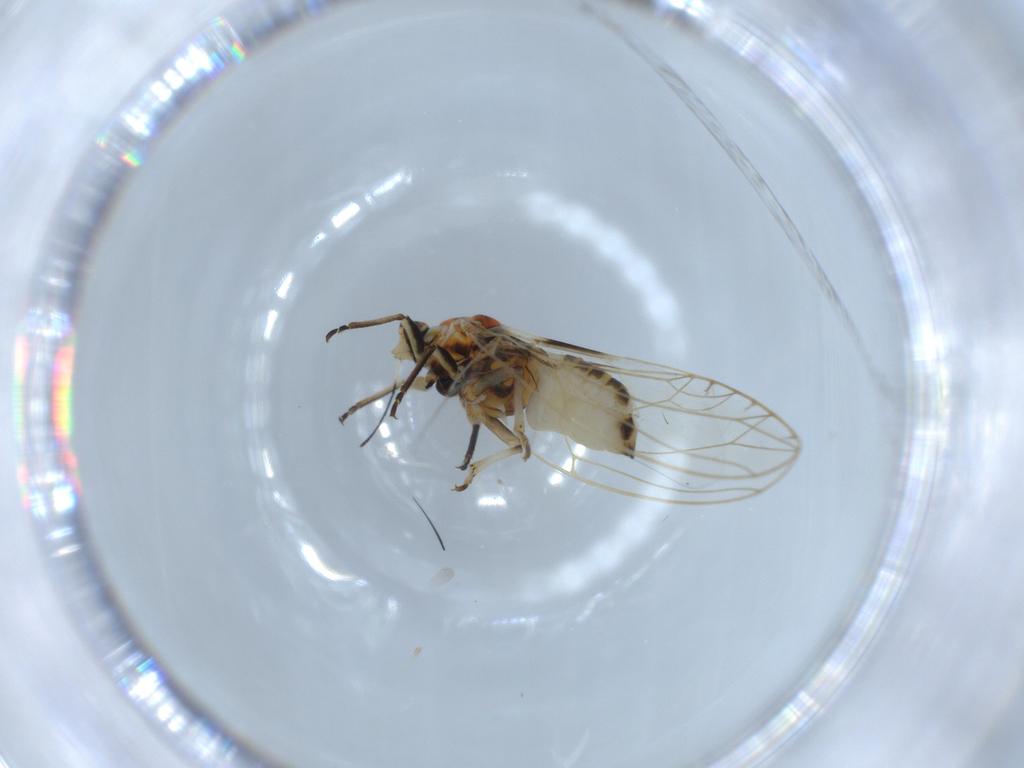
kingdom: Animalia
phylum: Arthropoda
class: Insecta
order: Hemiptera
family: Triozidae
